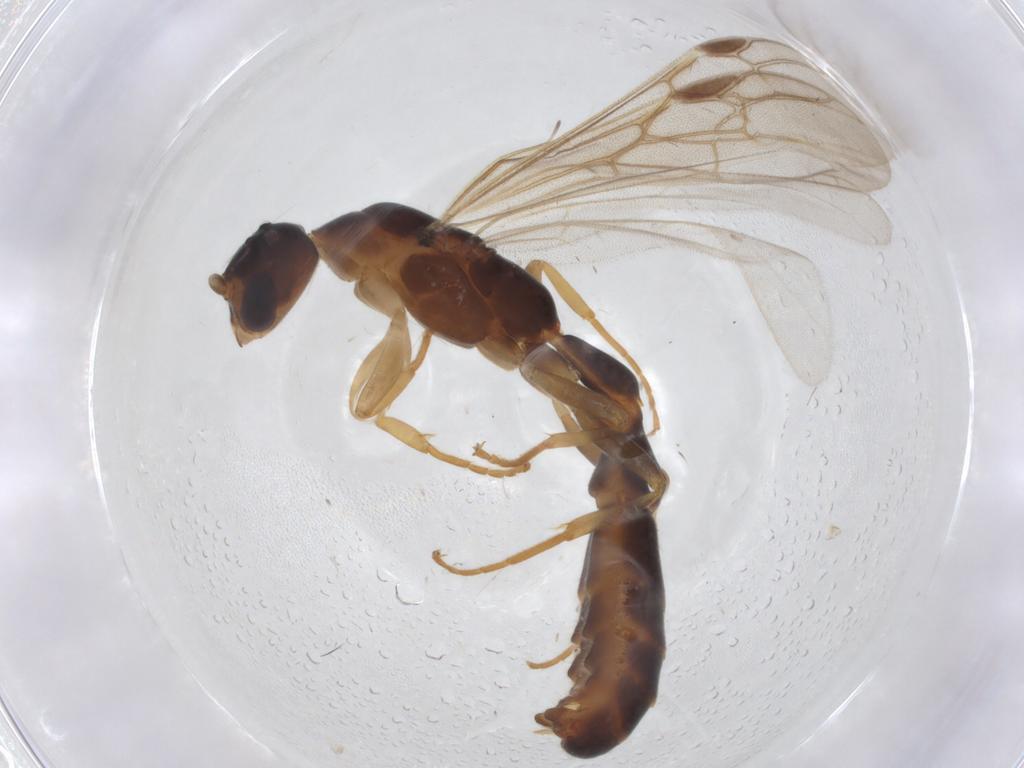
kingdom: Animalia
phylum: Arthropoda
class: Insecta
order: Hymenoptera
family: Formicidae
